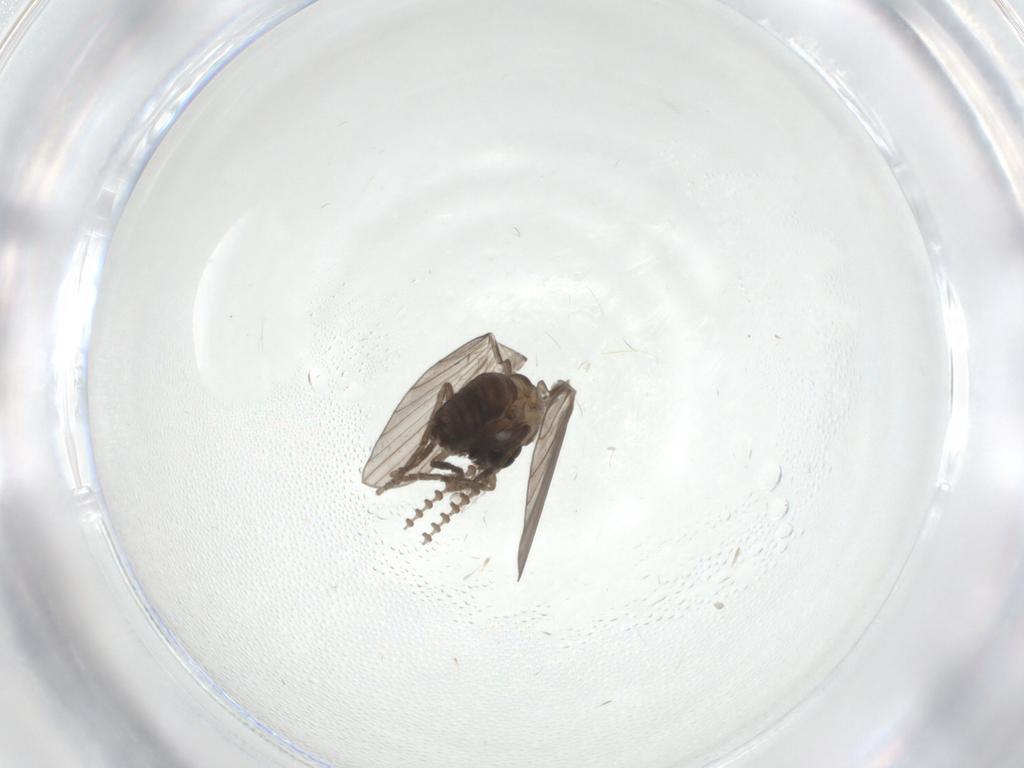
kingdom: Animalia
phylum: Arthropoda
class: Insecta
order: Diptera
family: Psychodidae
